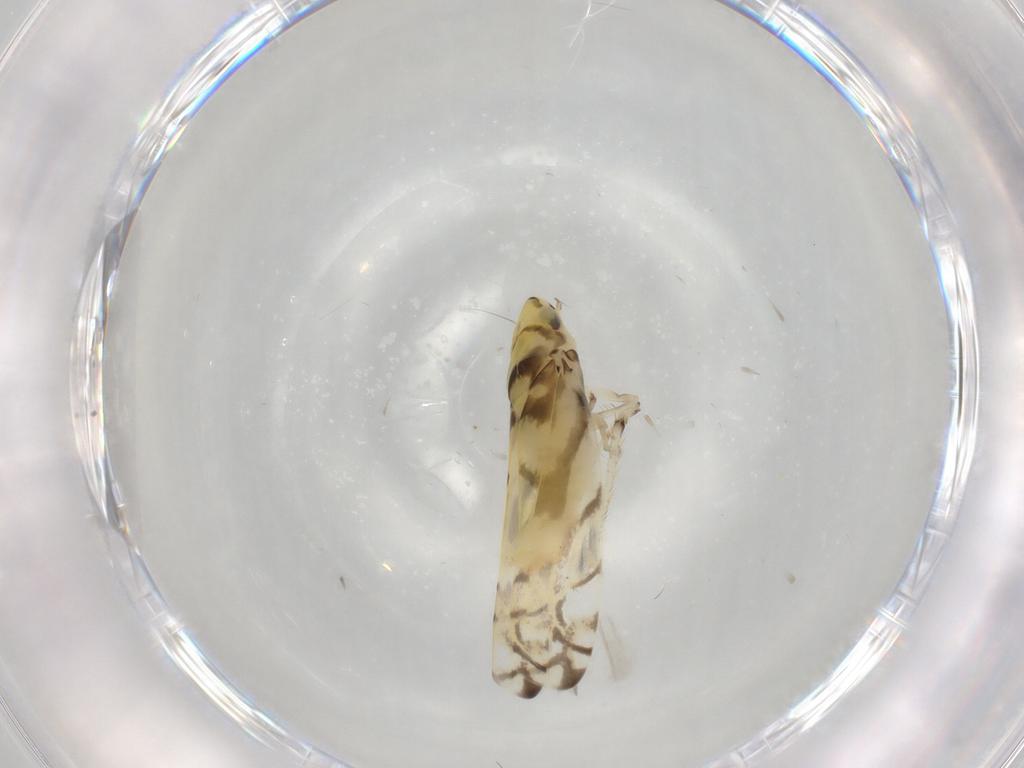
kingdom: Animalia
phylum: Arthropoda
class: Insecta
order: Hemiptera
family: Cicadellidae
